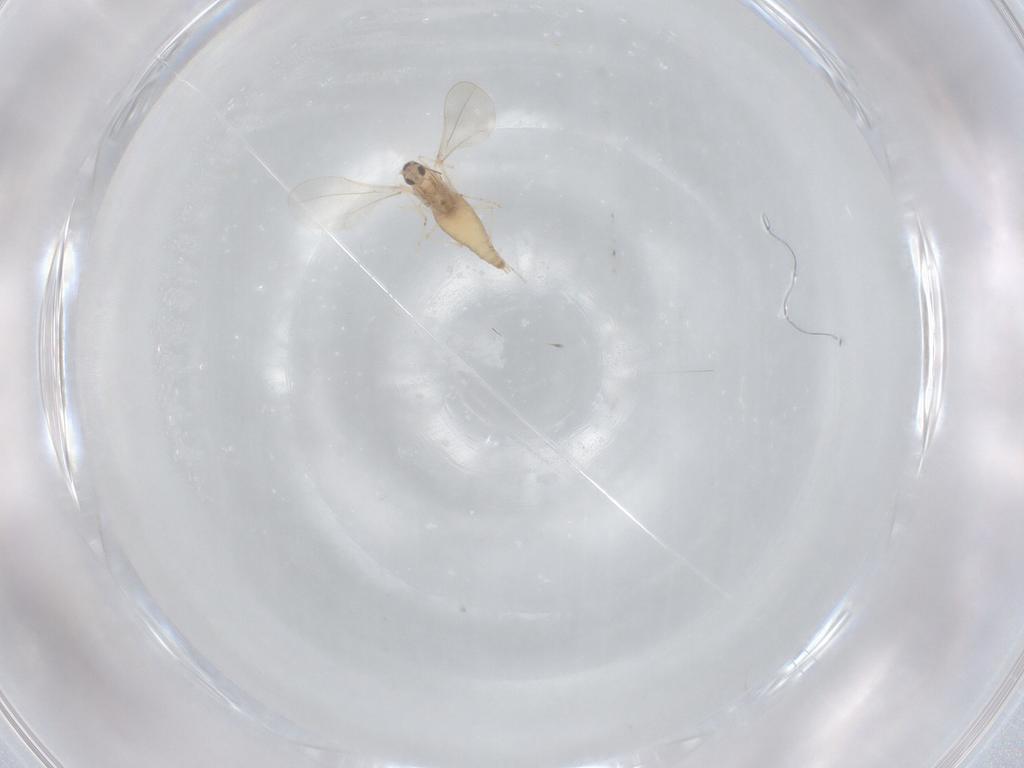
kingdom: Animalia
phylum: Arthropoda
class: Insecta
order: Diptera
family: Cecidomyiidae
